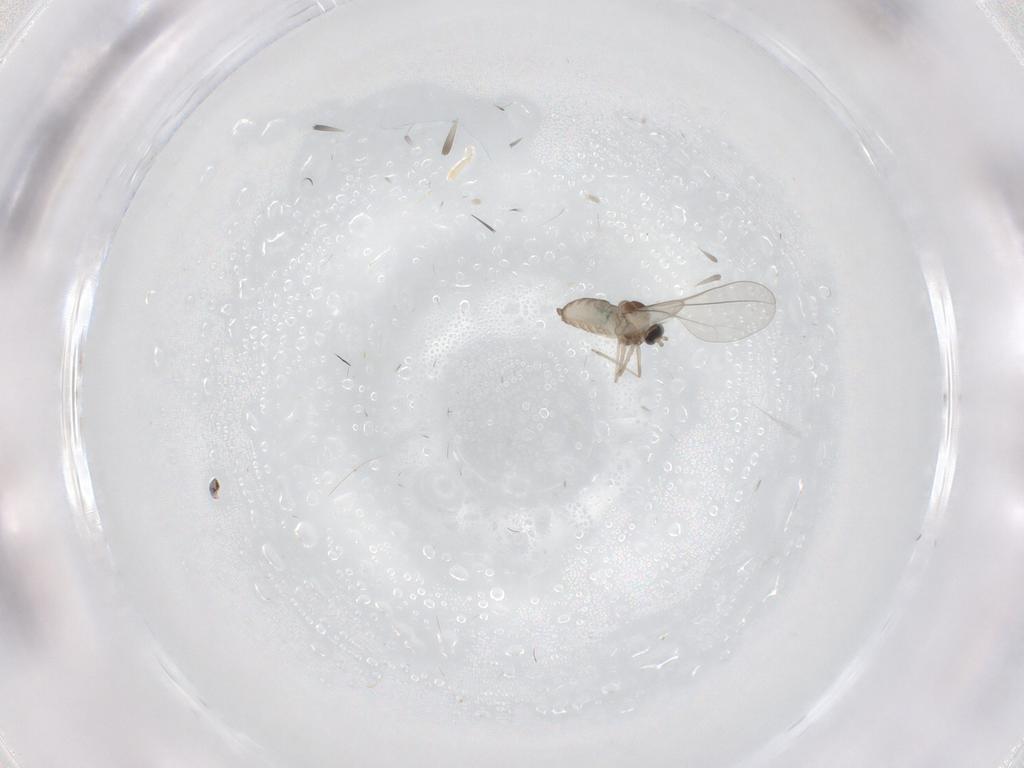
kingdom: Animalia
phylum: Arthropoda
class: Insecta
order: Diptera
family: Cecidomyiidae
